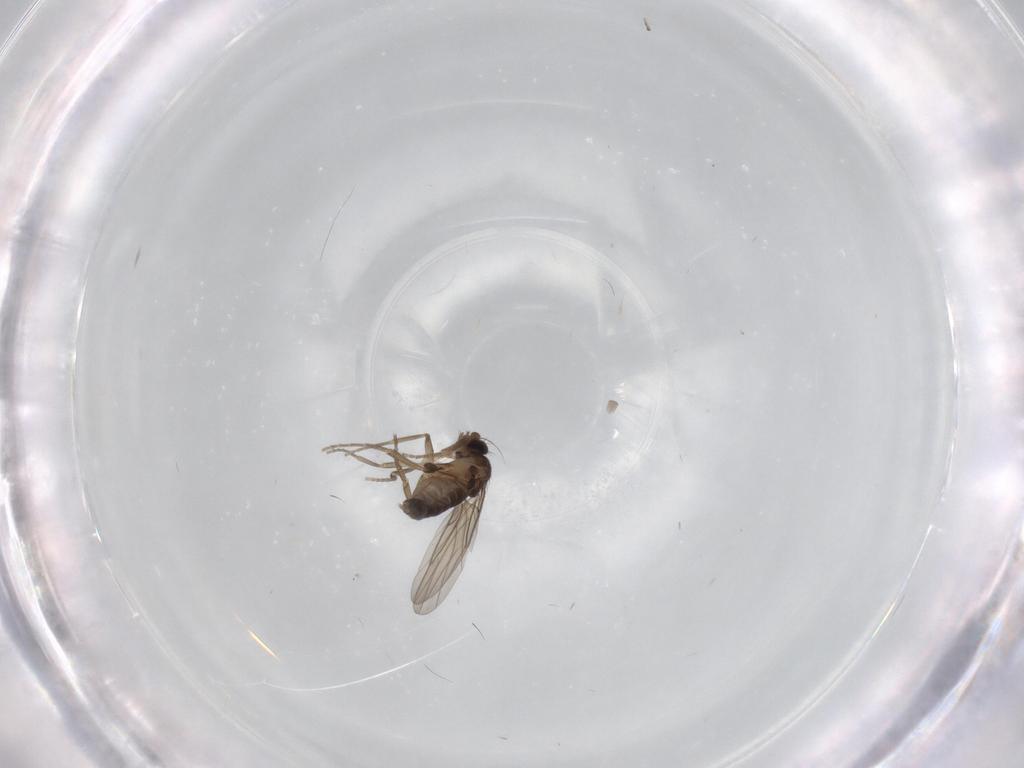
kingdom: Animalia
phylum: Arthropoda
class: Insecta
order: Diptera
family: Phoridae
